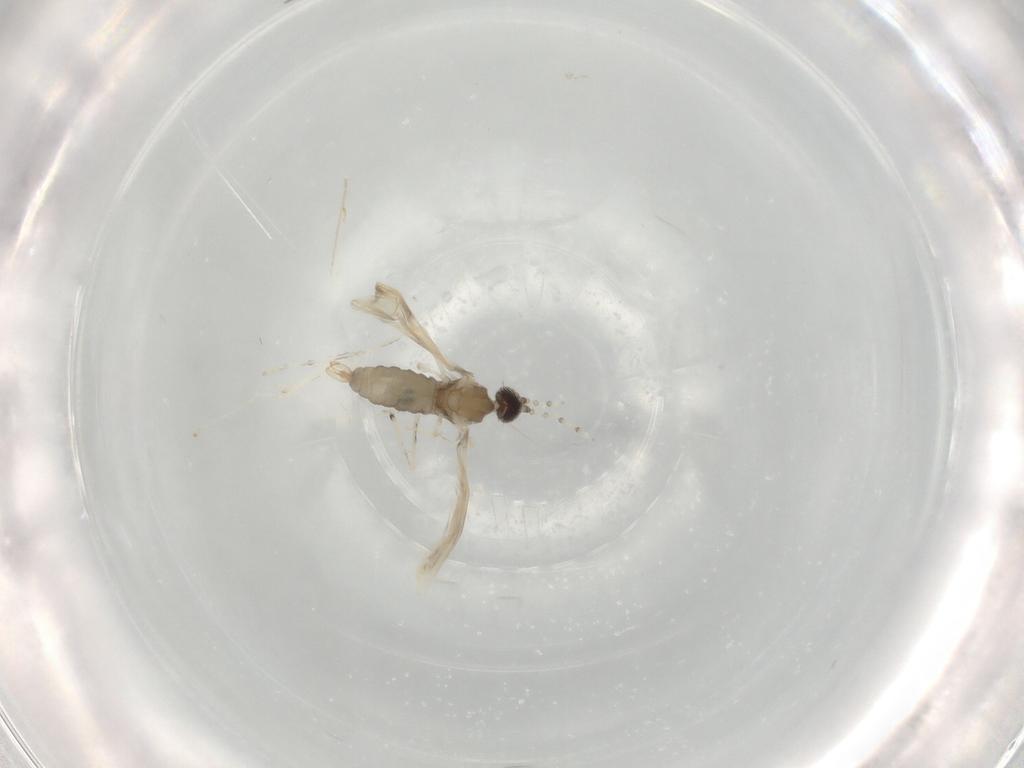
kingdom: Animalia
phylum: Arthropoda
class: Insecta
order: Diptera
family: Cecidomyiidae
